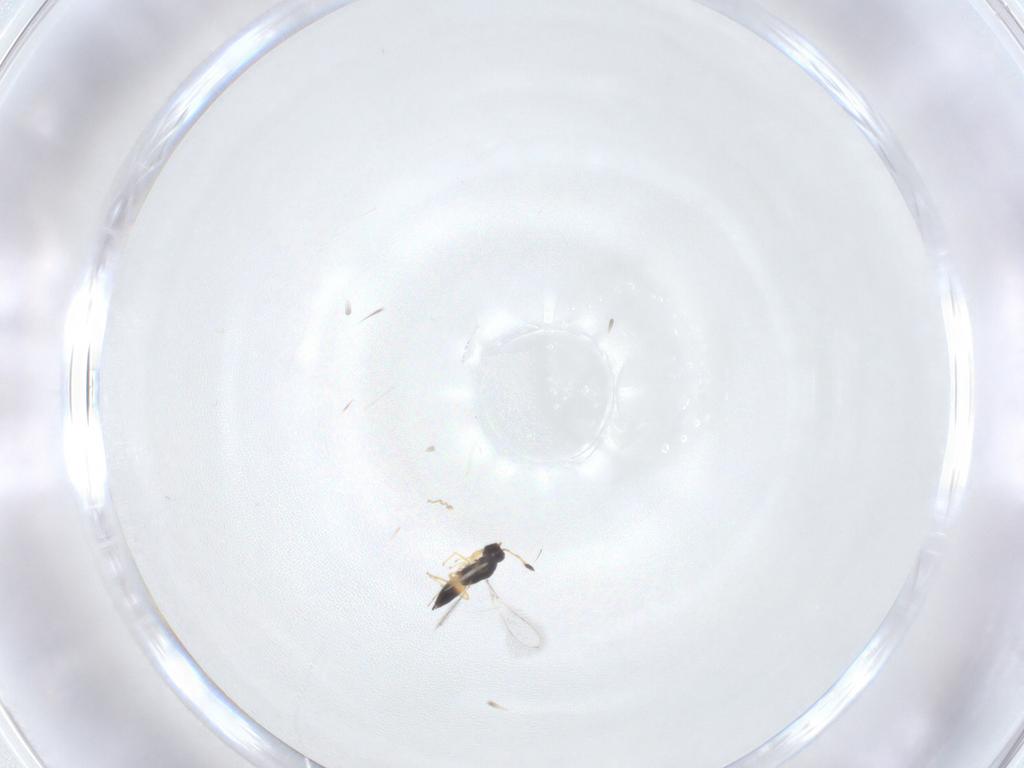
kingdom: Animalia
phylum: Arthropoda
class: Insecta
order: Hymenoptera
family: Mymaridae
